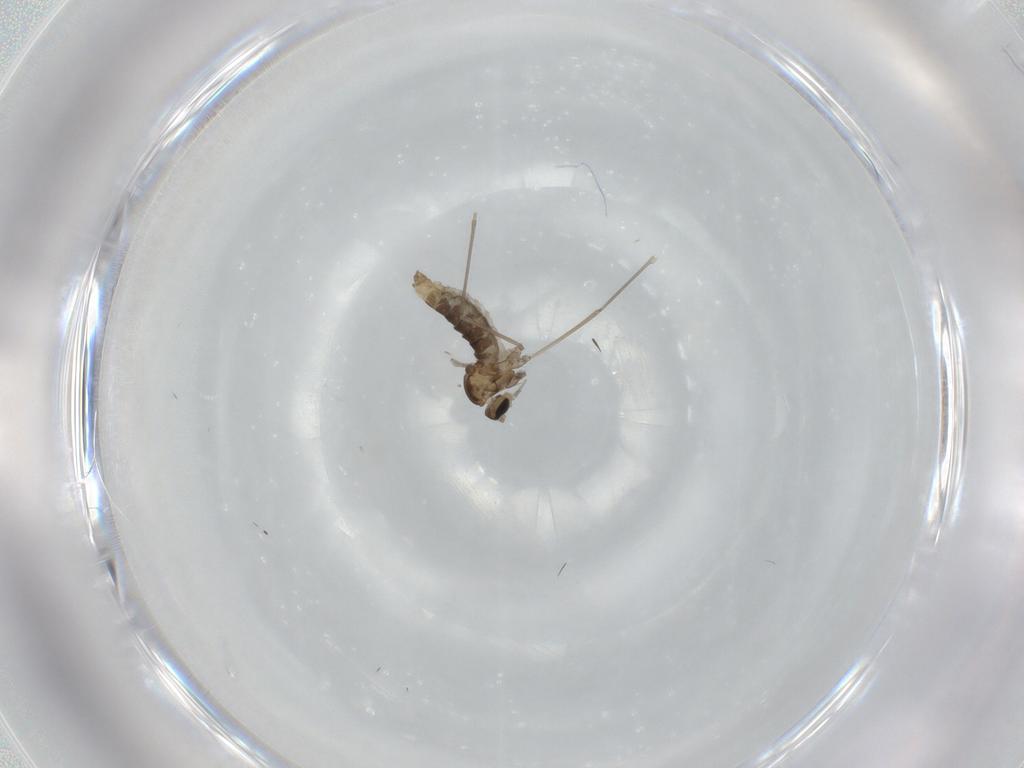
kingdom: Animalia
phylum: Arthropoda
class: Insecta
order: Diptera
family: Cecidomyiidae
